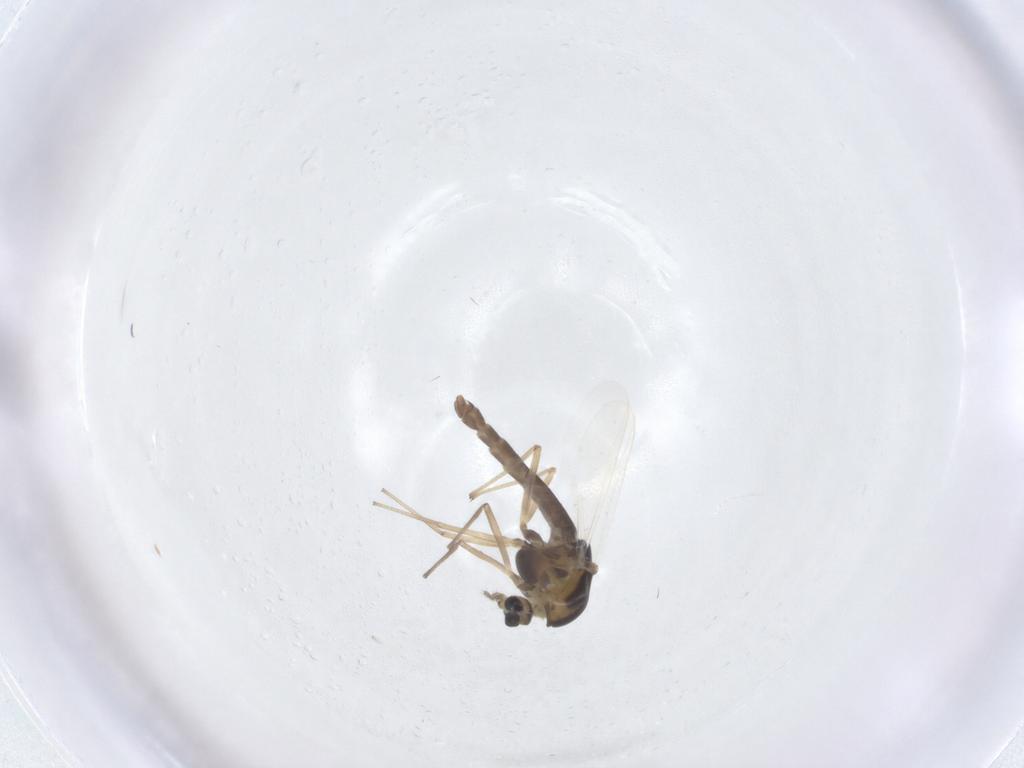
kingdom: Animalia
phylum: Arthropoda
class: Insecta
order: Diptera
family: Chironomidae
